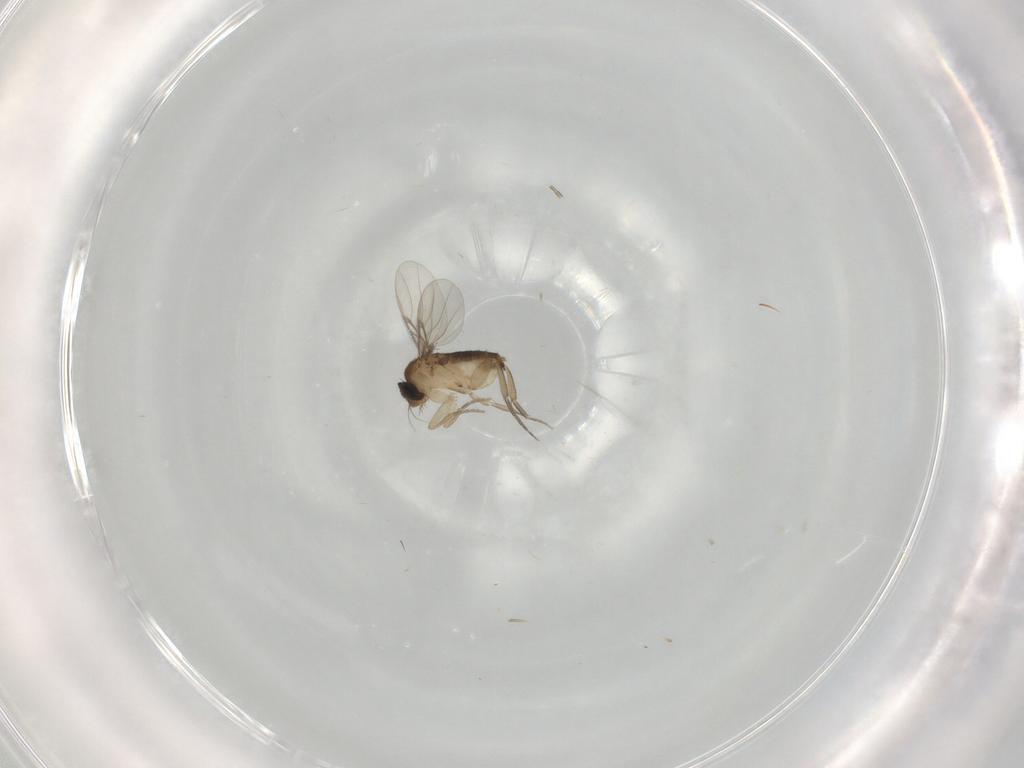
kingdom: Animalia
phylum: Arthropoda
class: Insecta
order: Diptera
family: Phoridae
